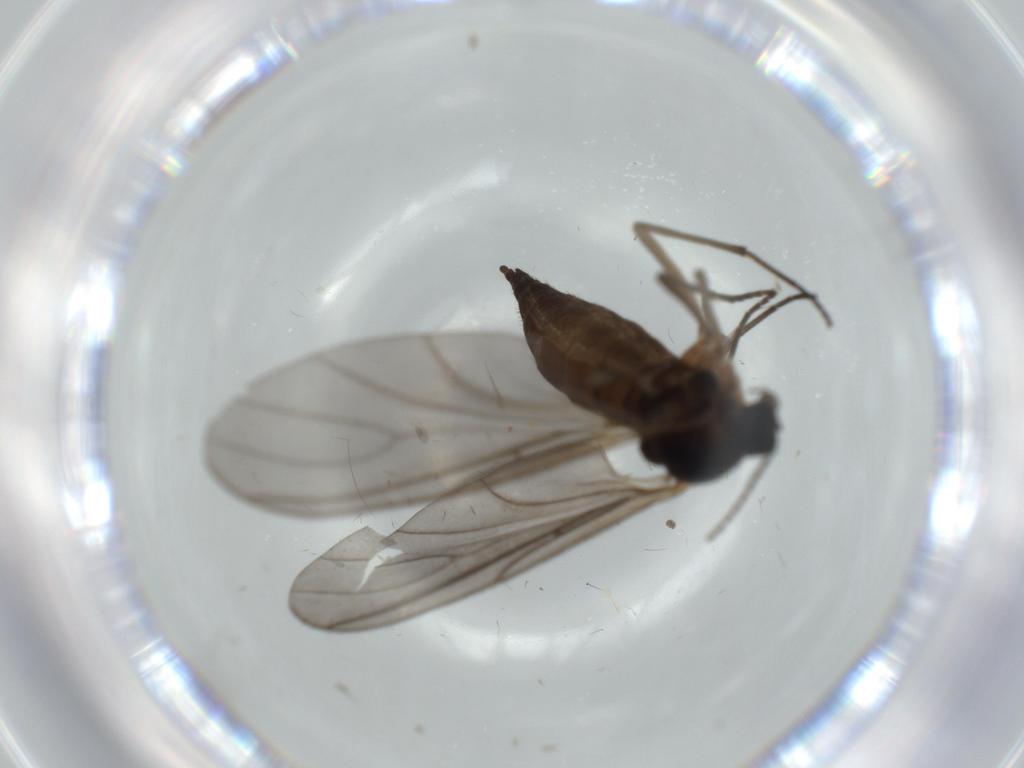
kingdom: Animalia
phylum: Arthropoda
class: Insecta
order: Diptera
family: Sciaridae
